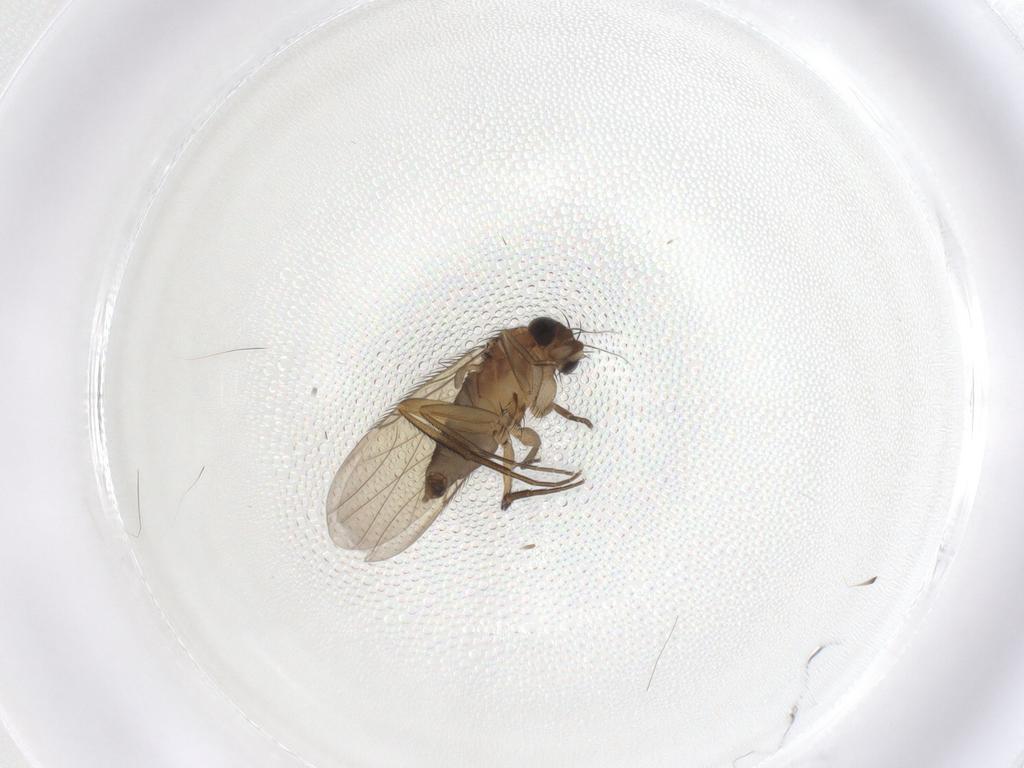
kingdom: Animalia
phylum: Arthropoda
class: Insecta
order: Diptera
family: Phoridae
